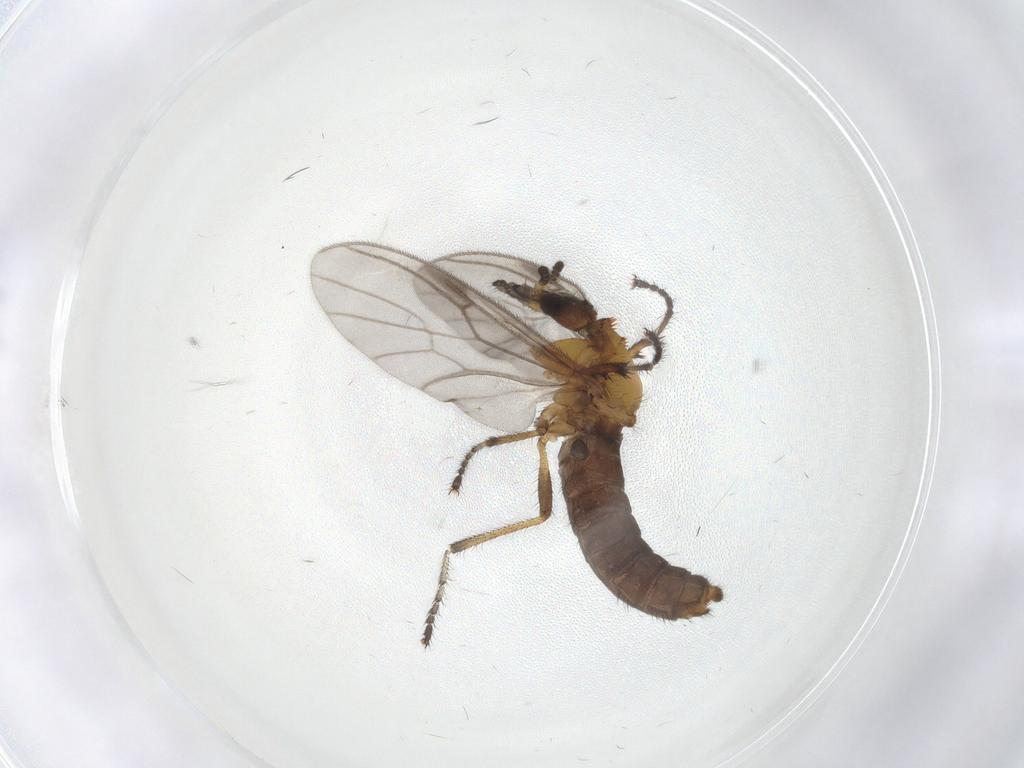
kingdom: Animalia
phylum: Arthropoda
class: Insecta
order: Diptera
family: Bibionidae
